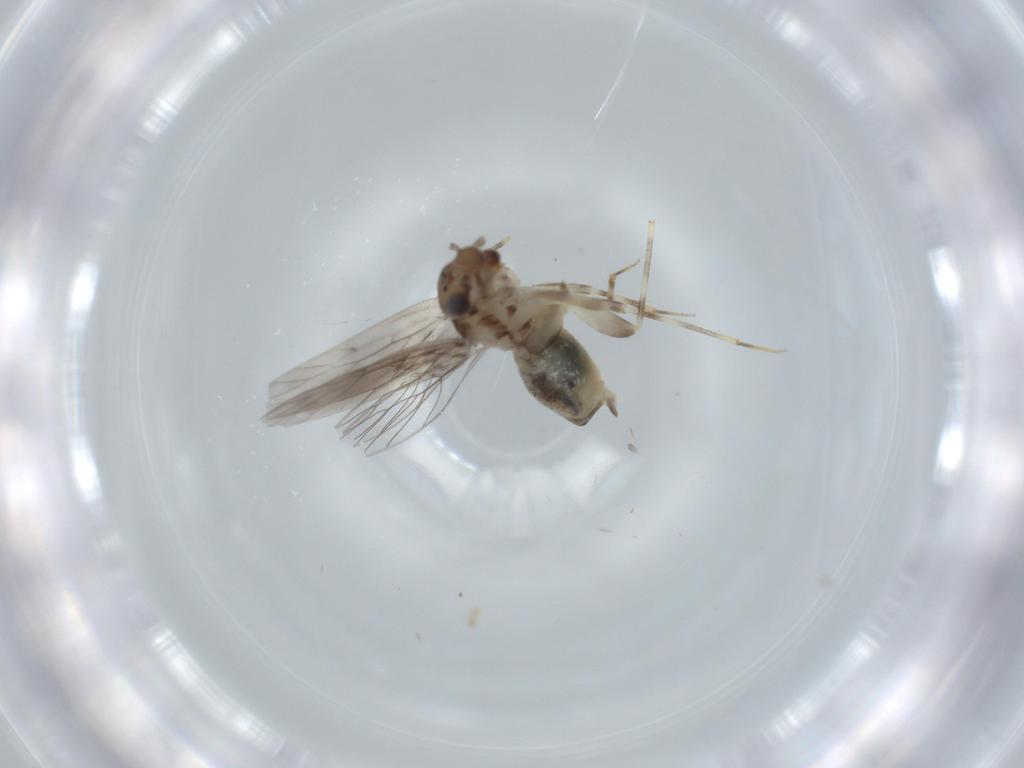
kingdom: Animalia
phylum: Arthropoda
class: Insecta
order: Psocodea
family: Lepidopsocidae
